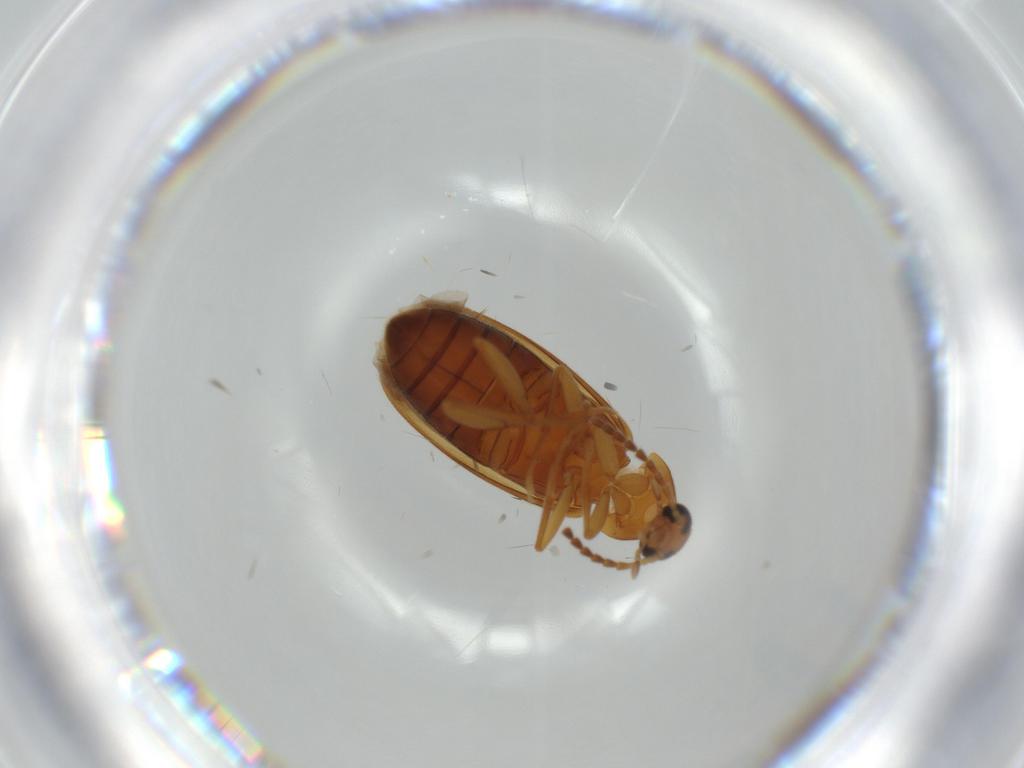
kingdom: Animalia
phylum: Arthropoda
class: Insecta
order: Coleoptera
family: Scraptiidae
